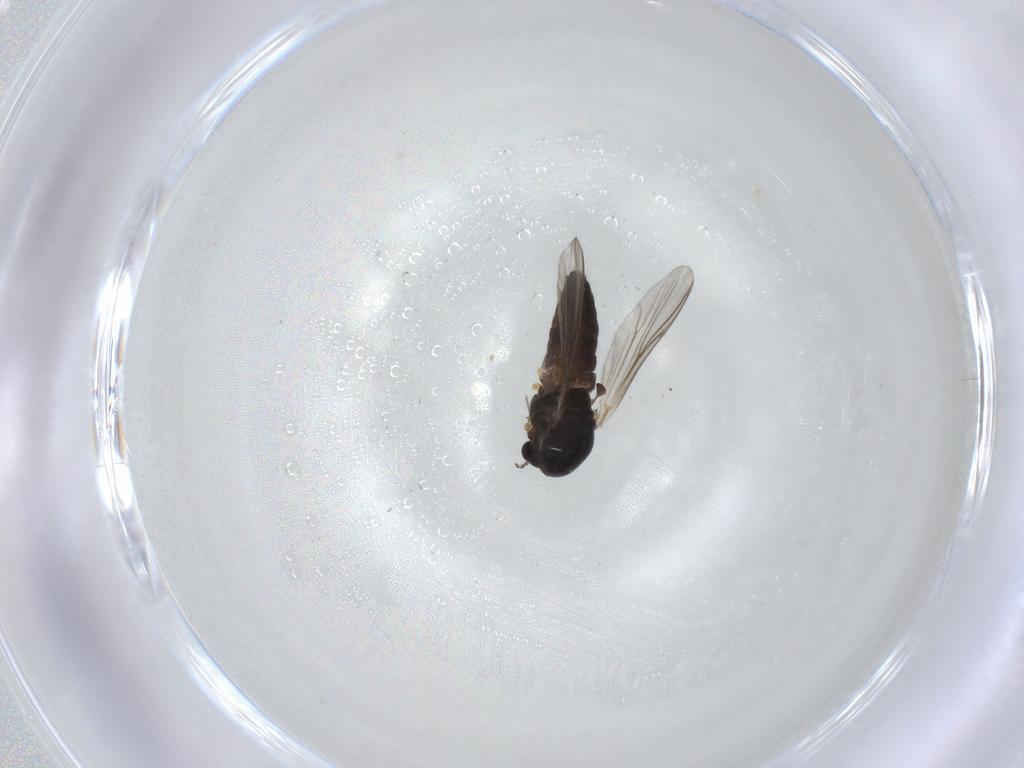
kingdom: Animalia
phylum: Arthropoda
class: Insecta
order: Diptera
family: Chironomidae
